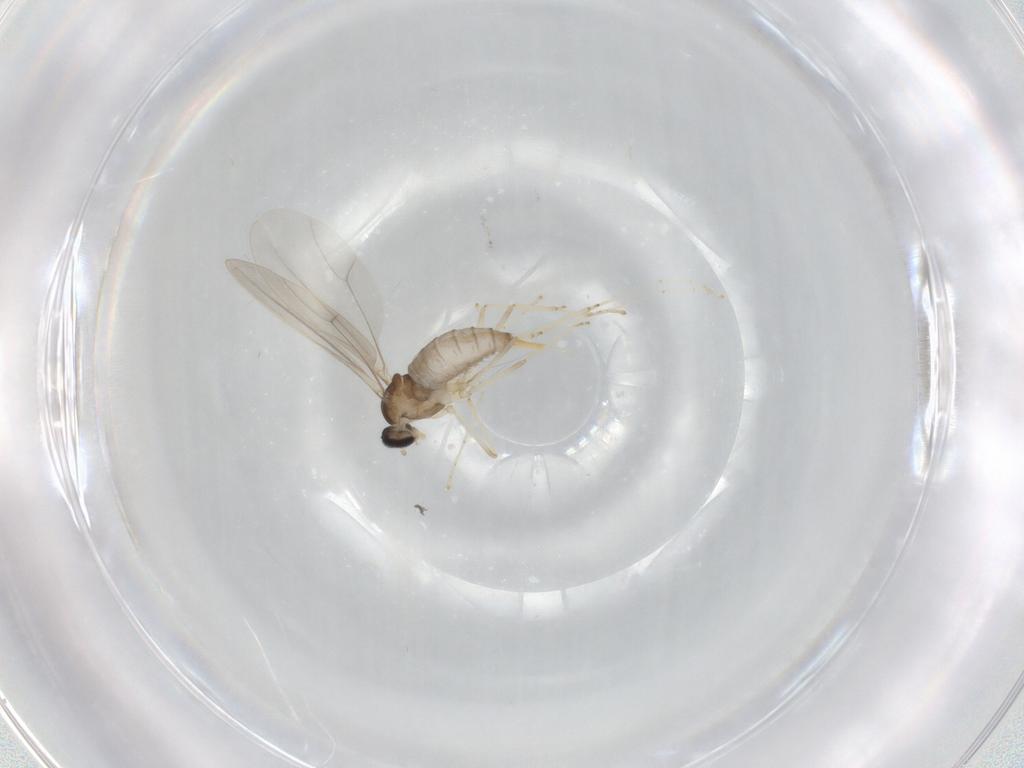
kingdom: Animalia
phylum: Arthropoda
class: Insecta
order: Diptera
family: Cecidomyiidae
